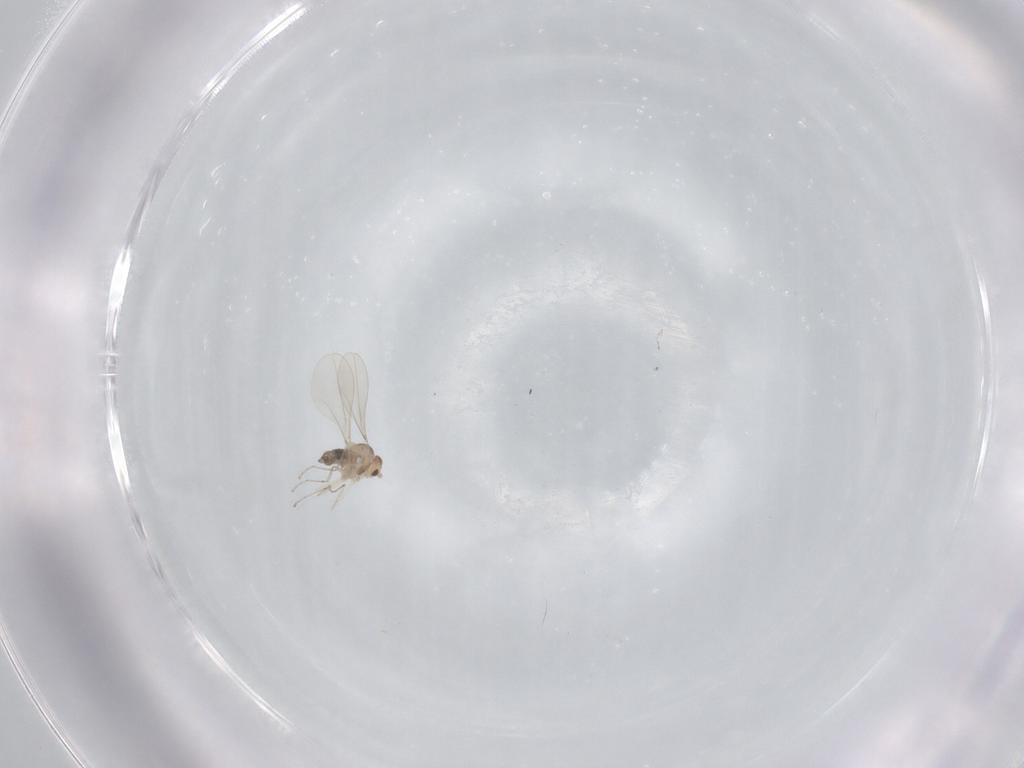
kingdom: Animalia
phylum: Arthropoda
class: Insecta
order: Diptera
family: Cecidomyiidae
